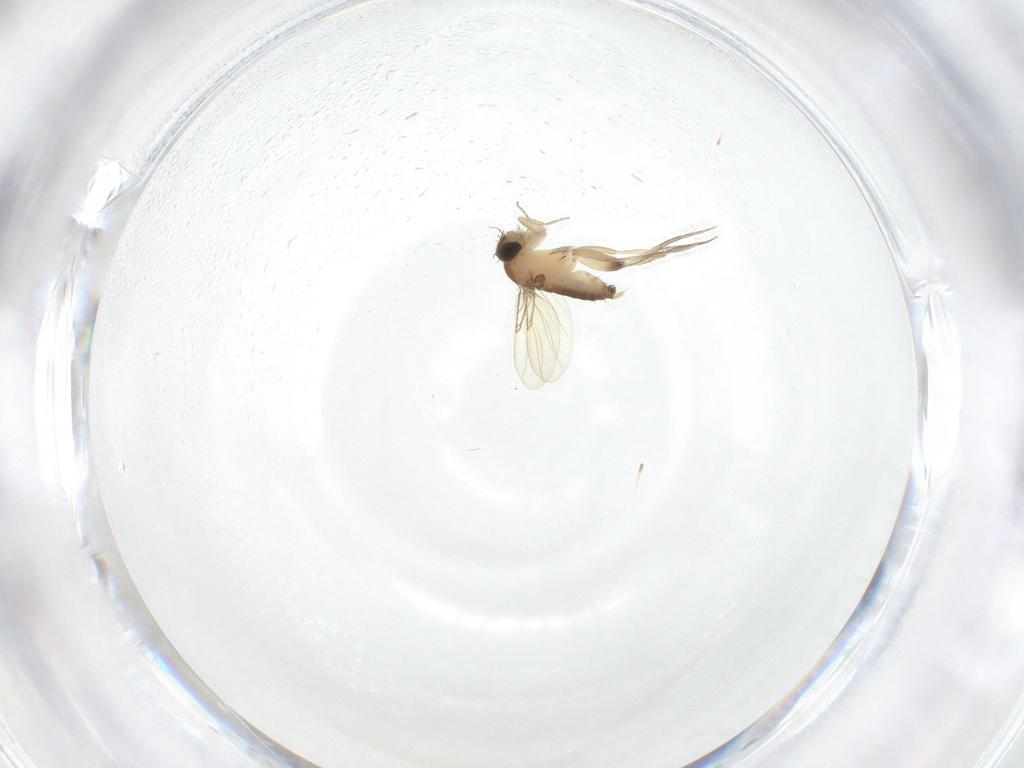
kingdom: Animalia
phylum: Arthropoda
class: Insecta
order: Diptera
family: Phoridae
